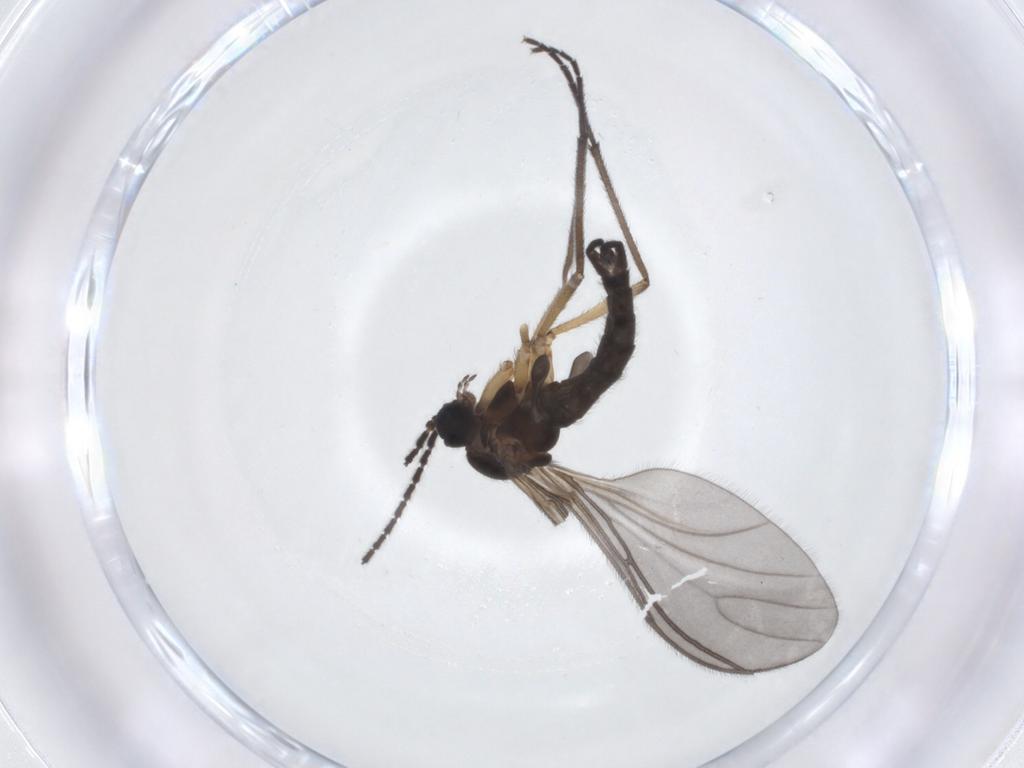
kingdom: Animalia
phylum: Arthropoda
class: Insecta
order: Diptera
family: Sciaridae
